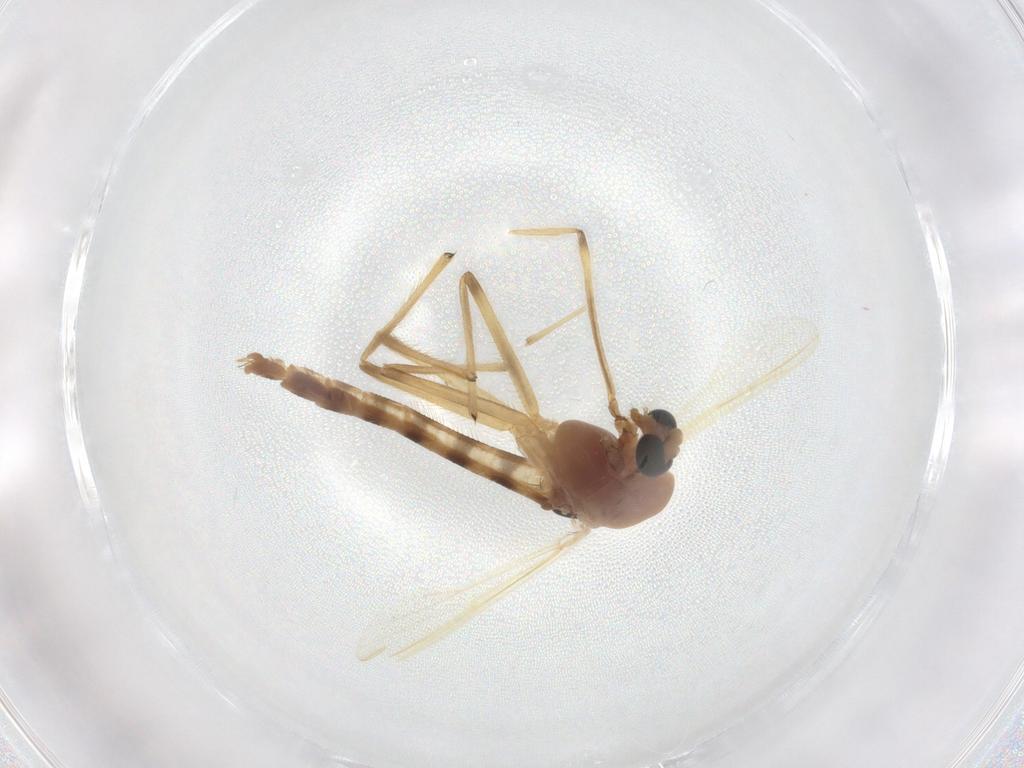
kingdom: Animalia
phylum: Arthropoda
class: Insecta
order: Diptera
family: Chironomidae
